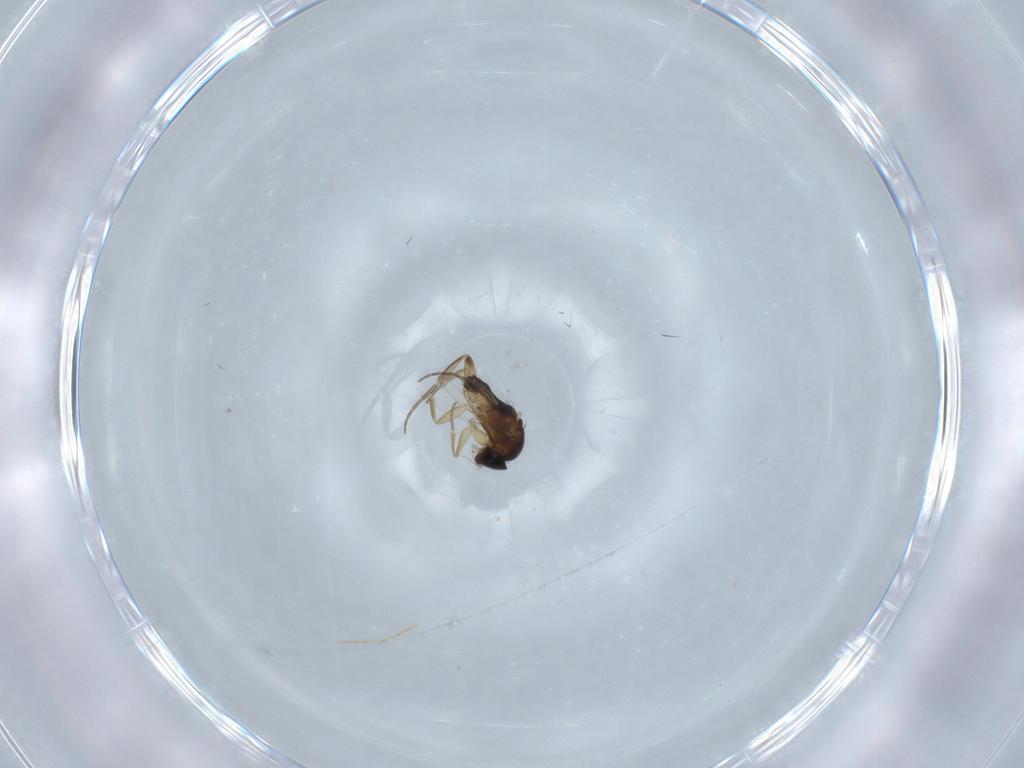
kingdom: Animalia
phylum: Arthropoda
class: Insecta
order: Diptera
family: Phoridae
